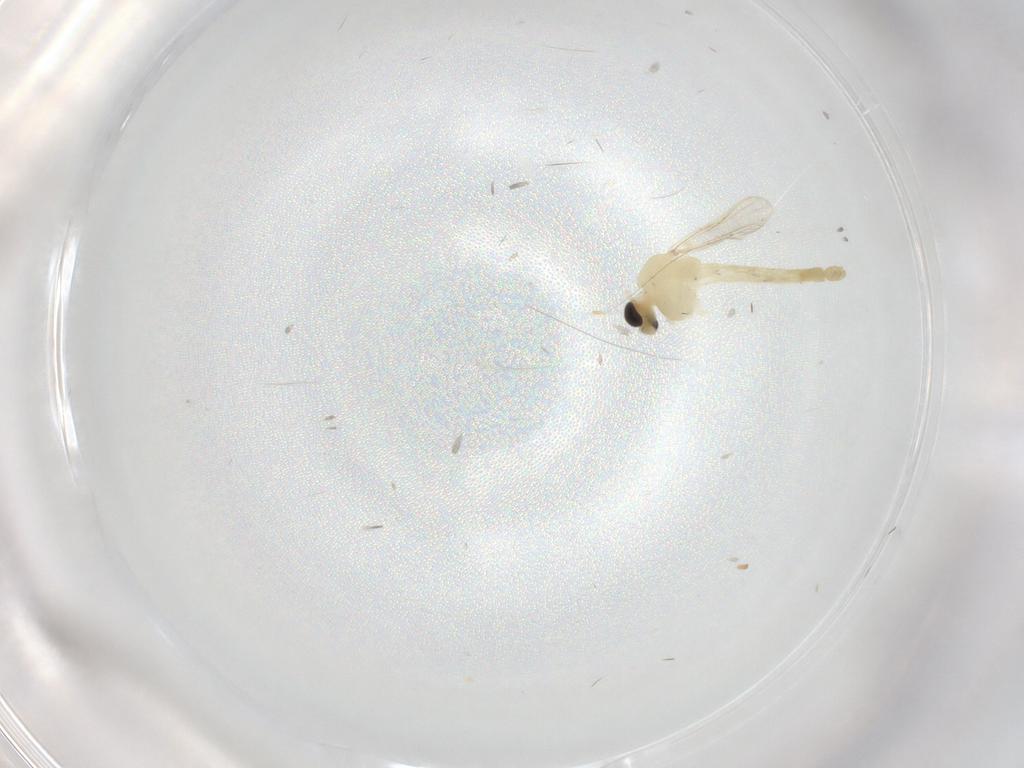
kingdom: Animalia
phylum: Arthropoda
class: Insecta
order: Diptera
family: Chironomidae
